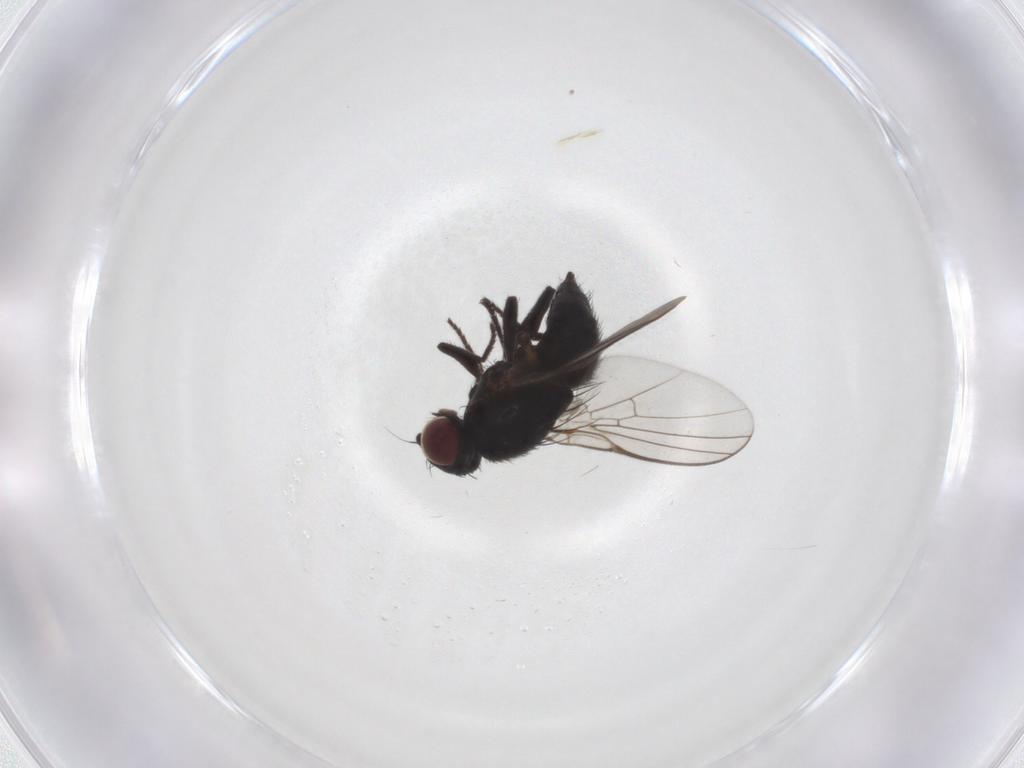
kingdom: Animalia
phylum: Arthropoda
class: Insecta
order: Diptera
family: Agromyzidae
